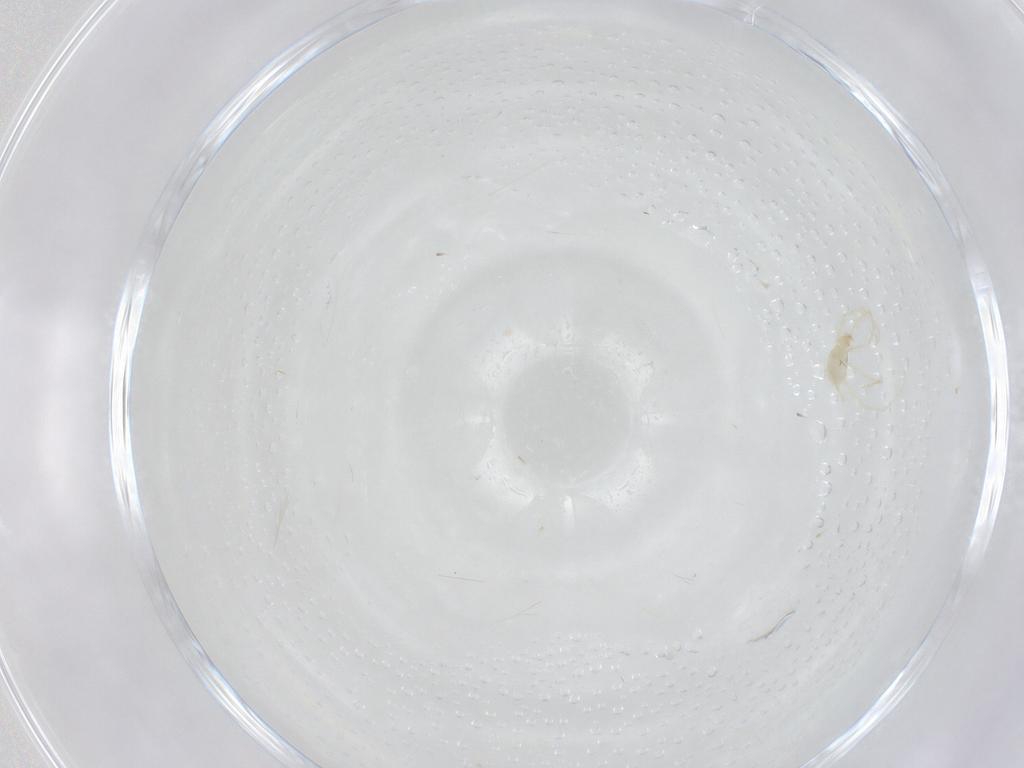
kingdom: Animalia
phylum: Arthropoda
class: Arachnida
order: Trombidiformes
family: Erythraeidae
